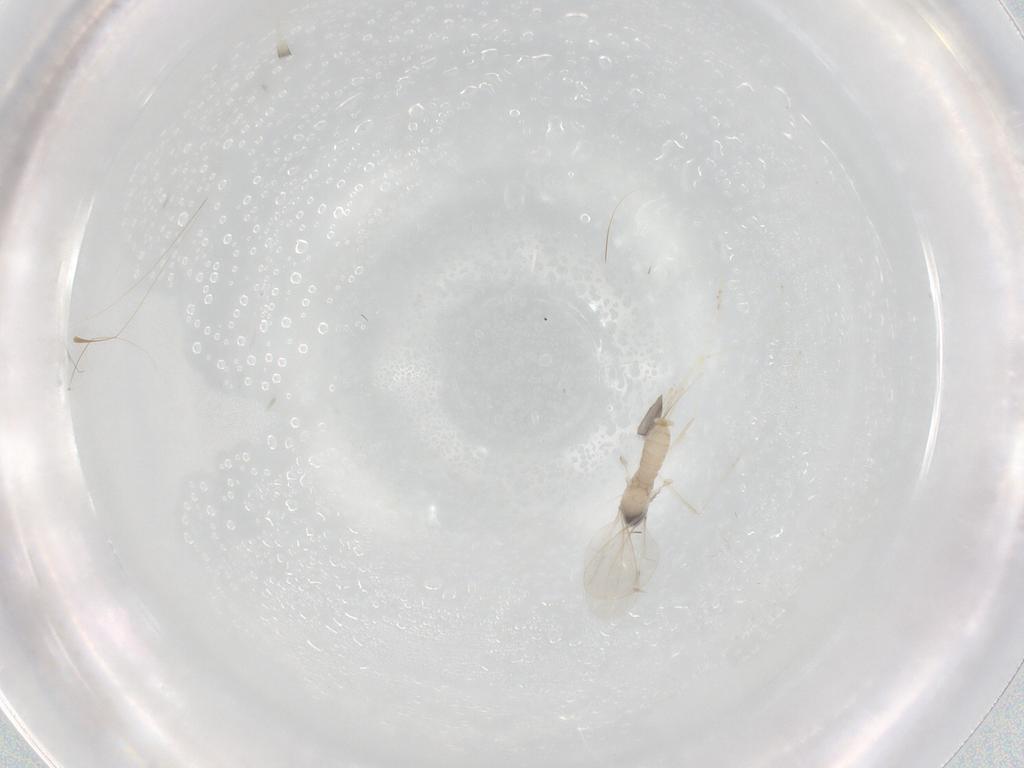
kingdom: Animalia
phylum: Arthropoda
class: Insecta
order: Diptera
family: Cecidomyiidae
